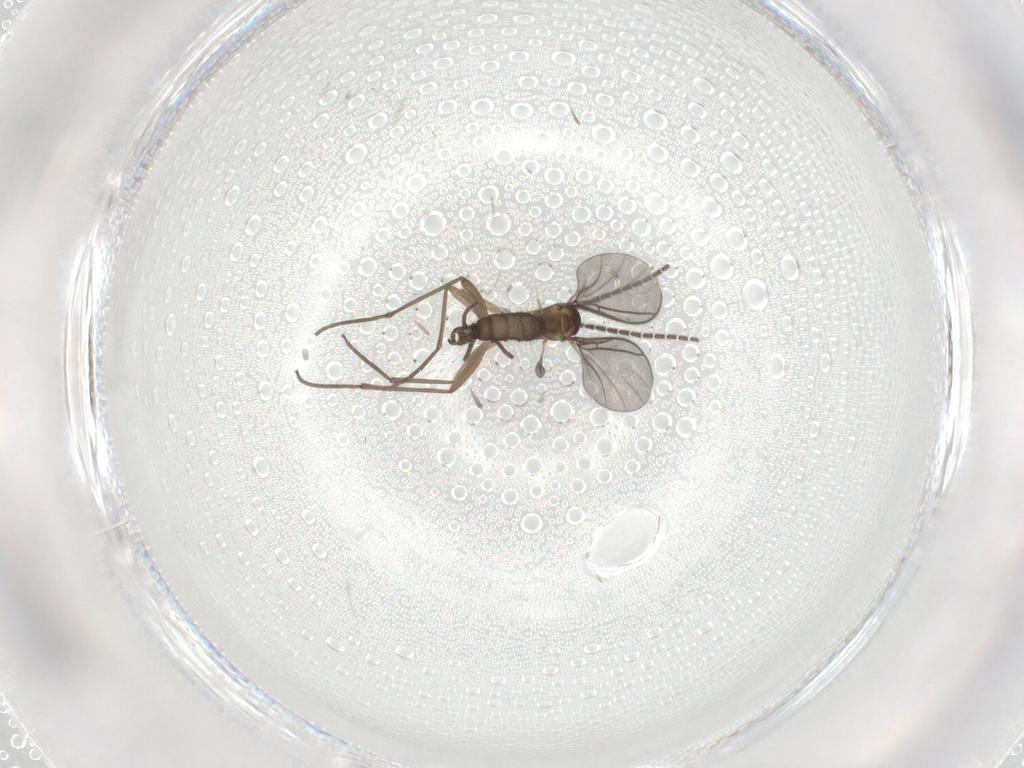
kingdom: Animalia
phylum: Arthropoda
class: Insecta
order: Diptera
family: Sciaridae
